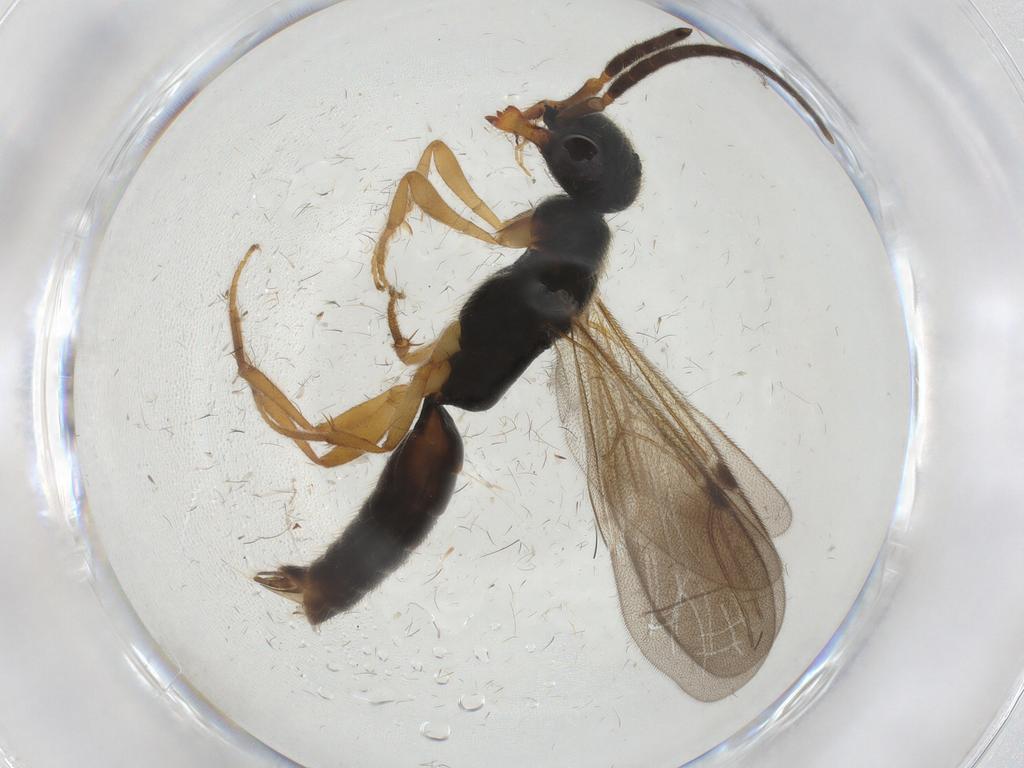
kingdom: Animalia
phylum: Arthropoda
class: Insecta
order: Hymenoptera
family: Bethylidae
